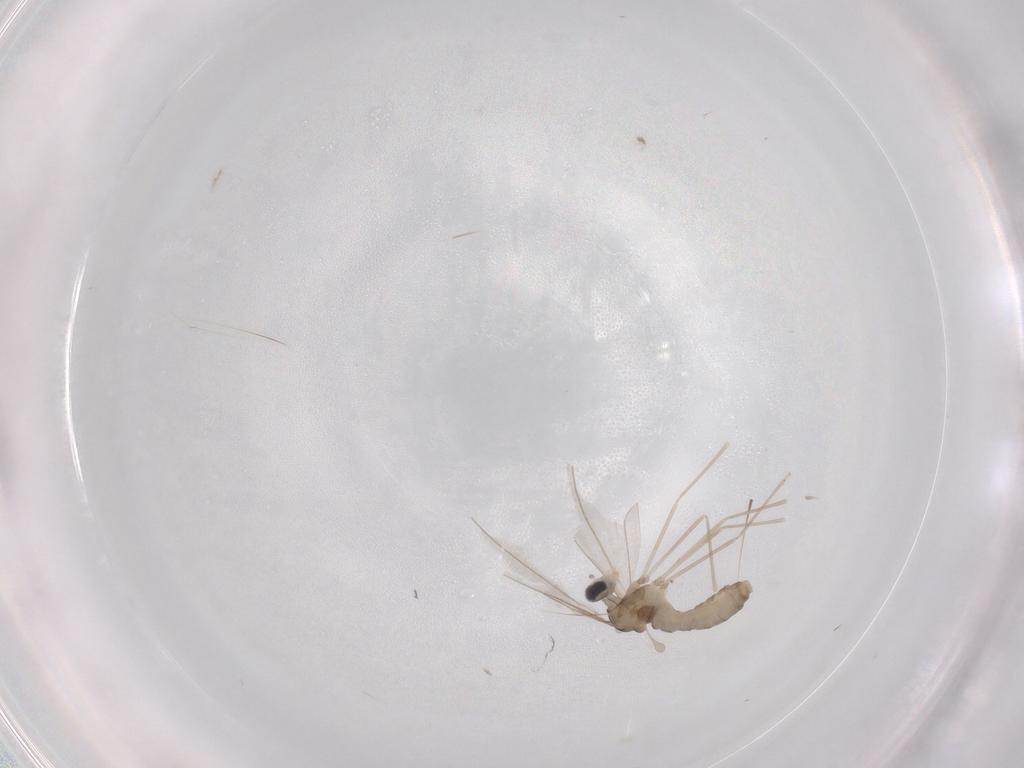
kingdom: Animalia
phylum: Arthropoda
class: Insecta
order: Diptera
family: Cecidomyiidae
